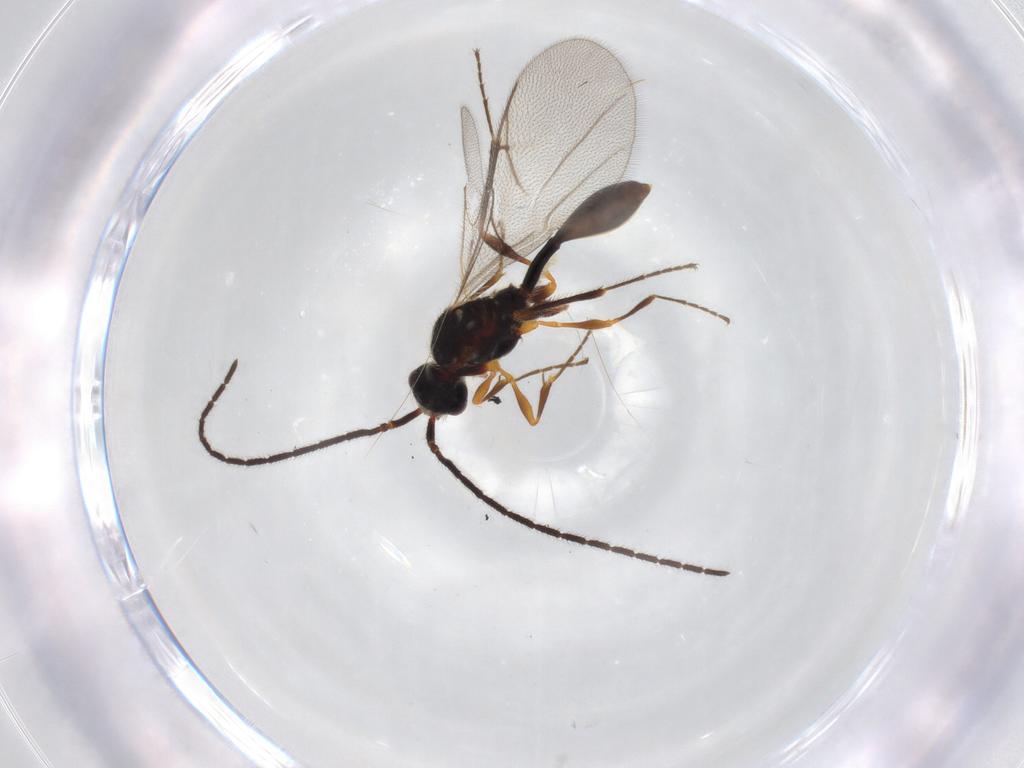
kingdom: Animalia
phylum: Arthropoda
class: Insecta
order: Hymenoptera
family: Diapriidae
